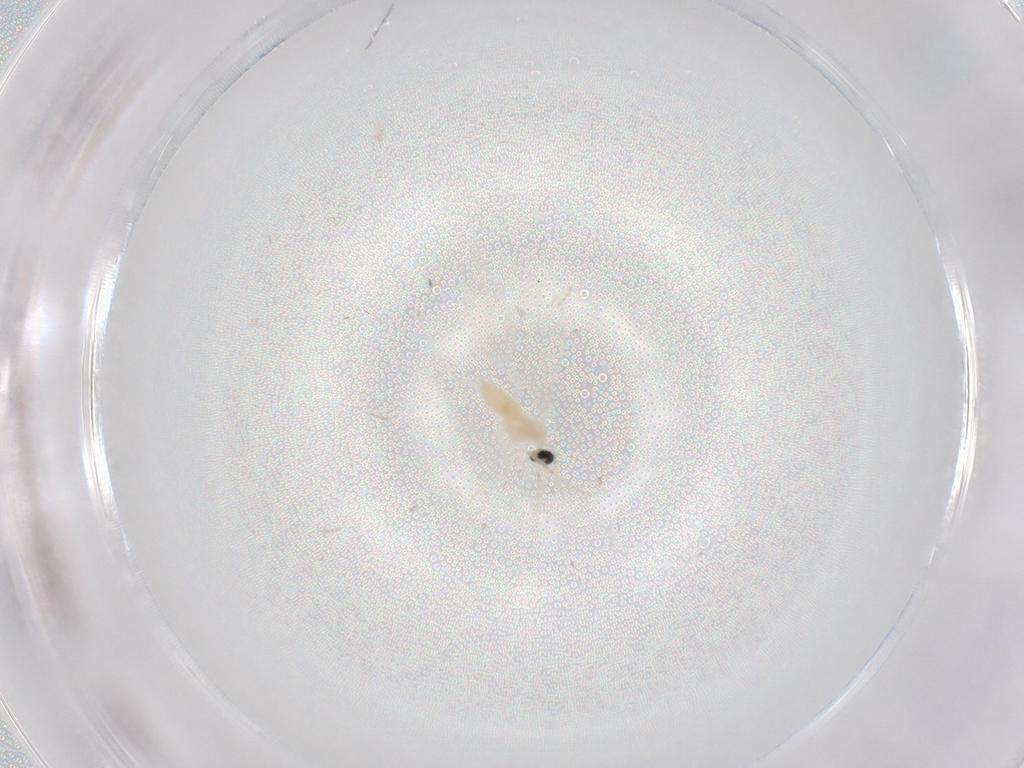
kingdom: Animalia
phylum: Arthropoda
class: Insecta
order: Diptera
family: Cecidomyiidae
